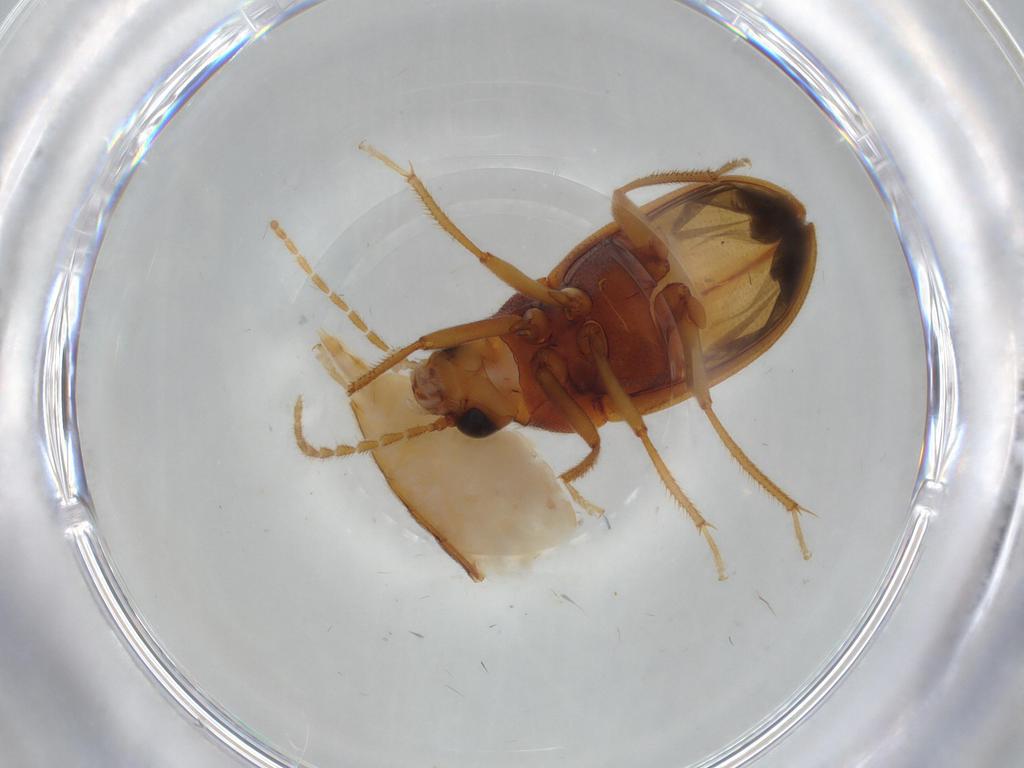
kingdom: Animalia
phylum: Arthropoda
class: Insecta
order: Coleoptera
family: Ptilodactylidae
